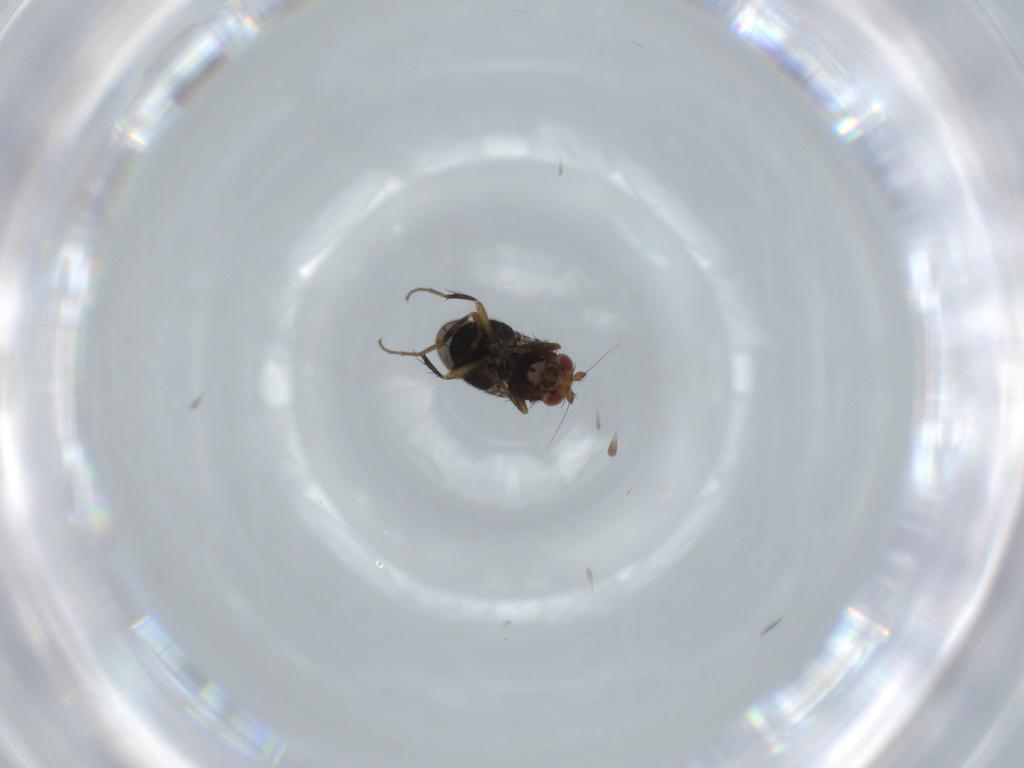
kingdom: Animalia
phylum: Arthropoda
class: Insecta
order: Diptera
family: Sphaeroceridae
